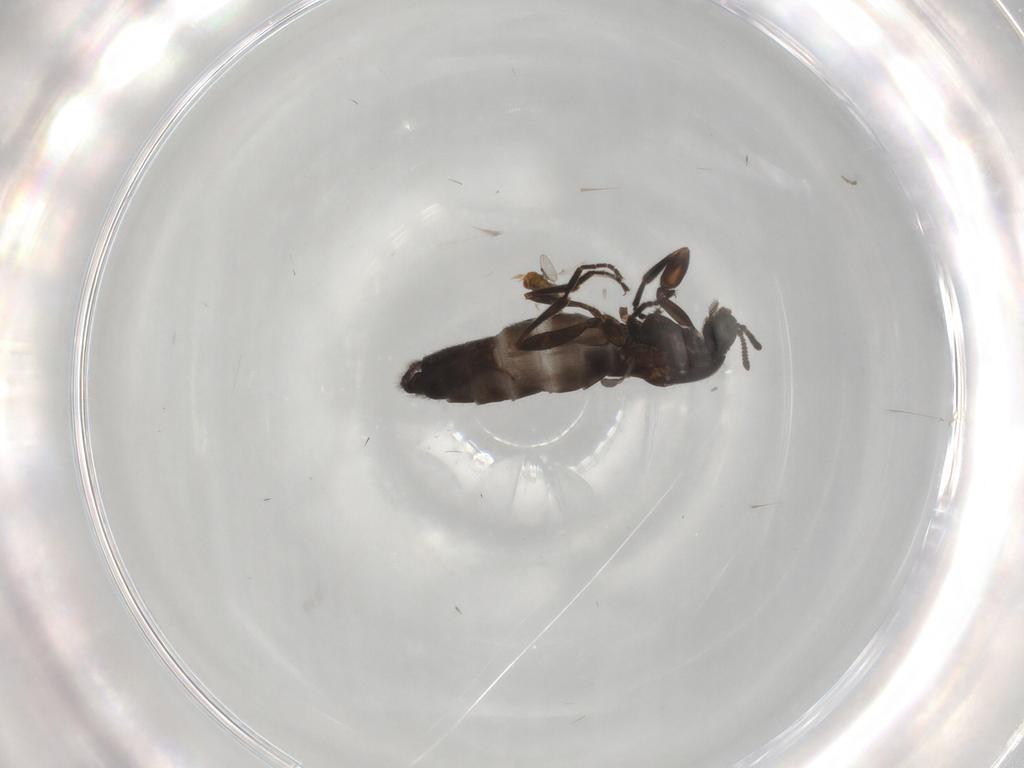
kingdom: Animalia
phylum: Arthropoda
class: Insecta
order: Diptera
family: Scatopsidae
